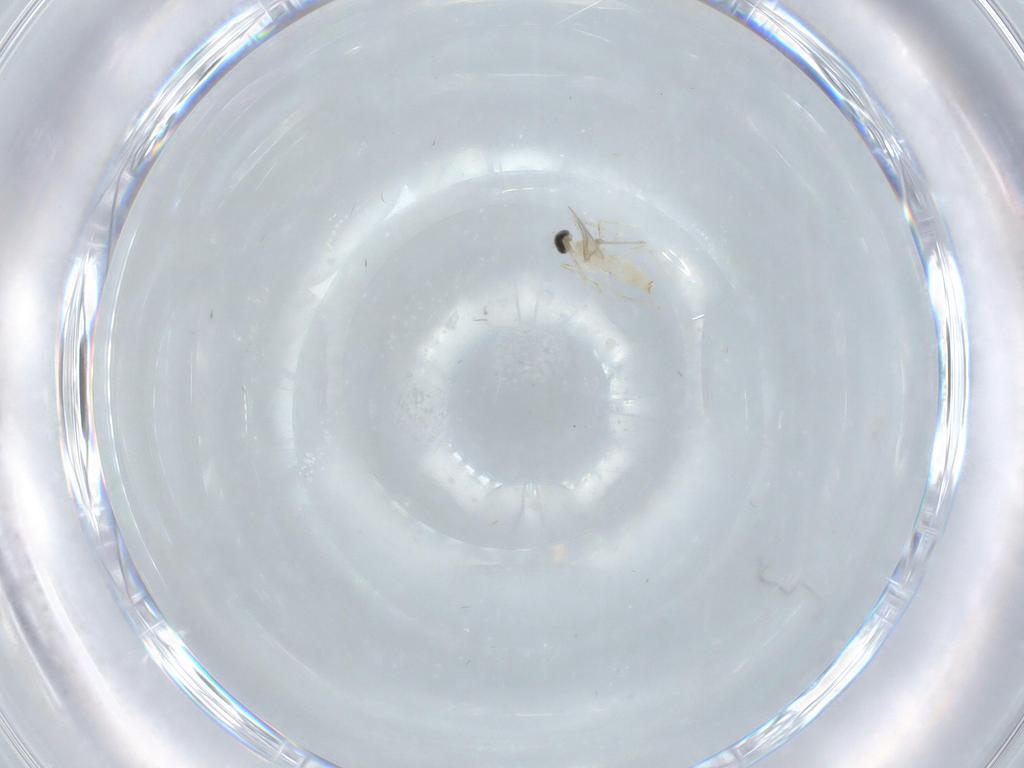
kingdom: Animalia
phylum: Arthropoda
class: Insecta
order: Diptera
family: Cecidomyiidae
